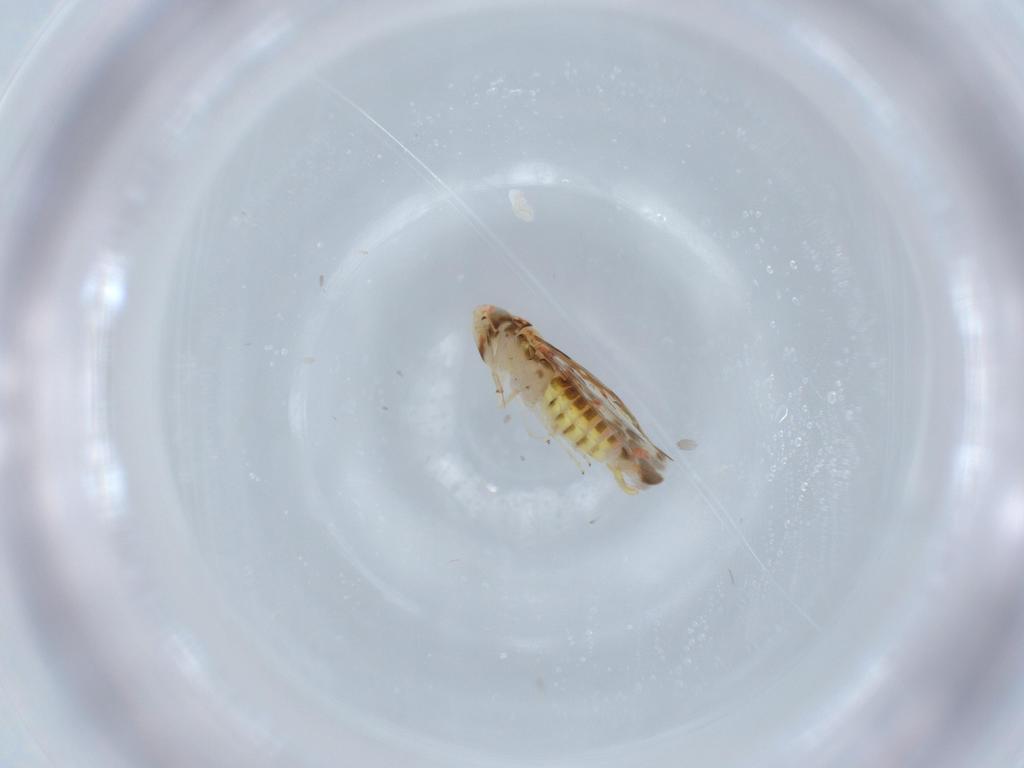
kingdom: Animalia
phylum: Arthropoda
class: Insecta
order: Hemiptera
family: Cicadellidae
